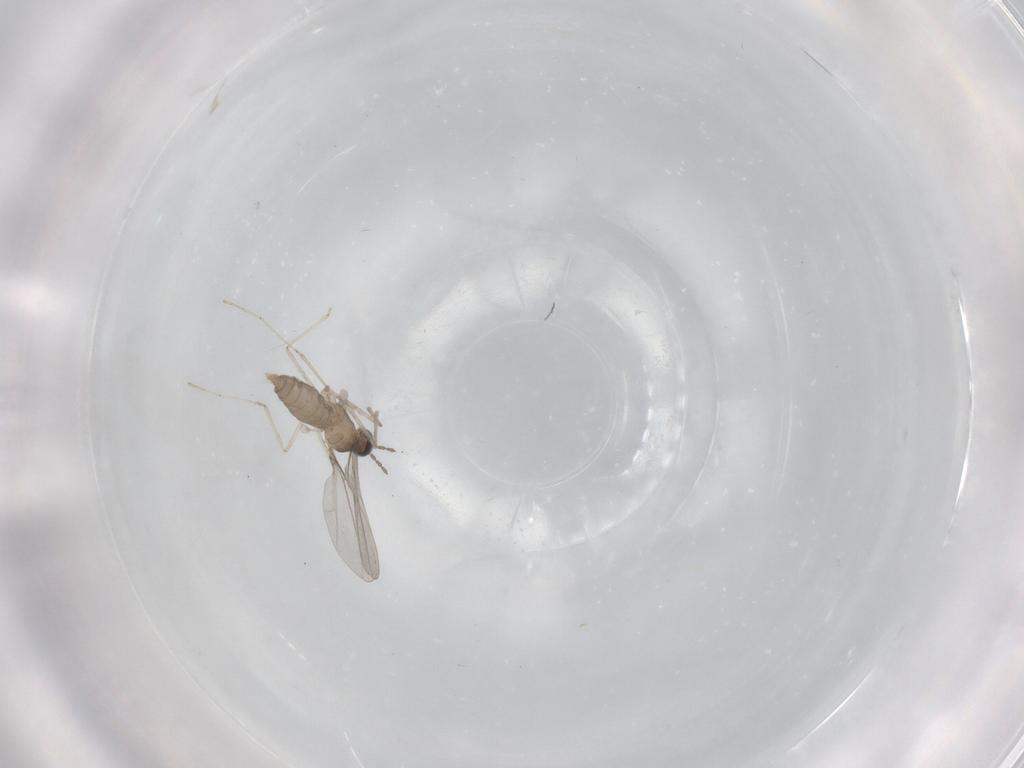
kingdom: Animalia
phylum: Arthropoda
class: Insecta
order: Diptera
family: Cecidomyiidae
